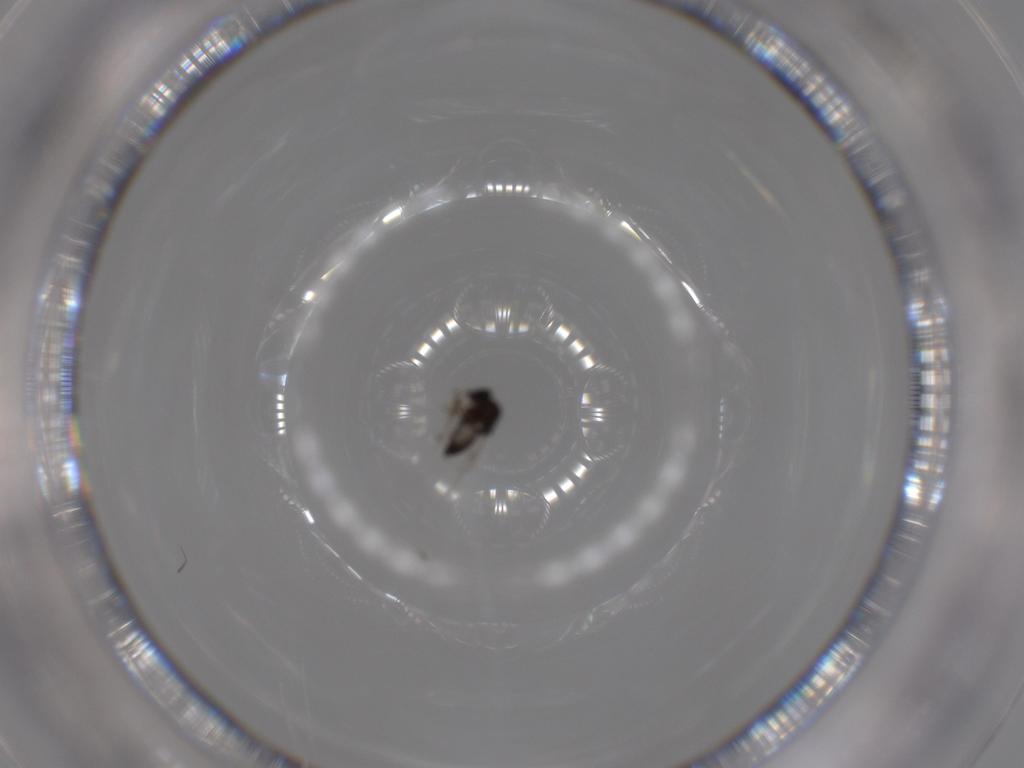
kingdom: Animalia
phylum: Arthropoda
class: Insecta
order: Diptera
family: Ceratopogonidae
